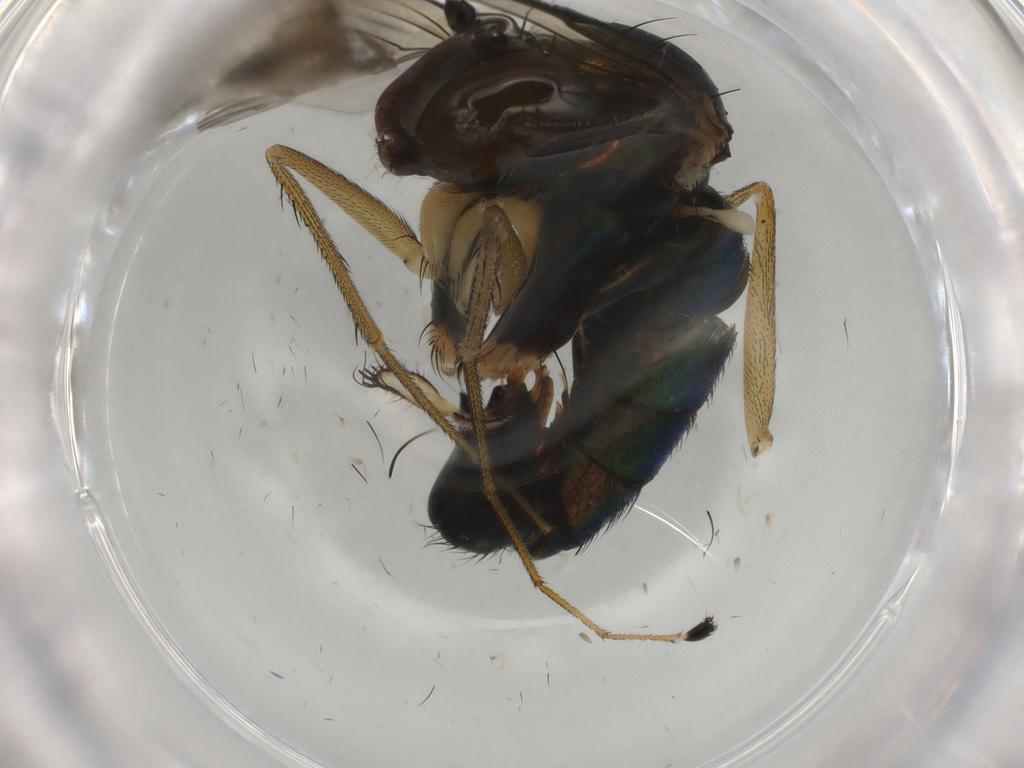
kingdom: Animalia
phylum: Arthropoda
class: Insecta
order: Diptera
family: Dolichopodidae
